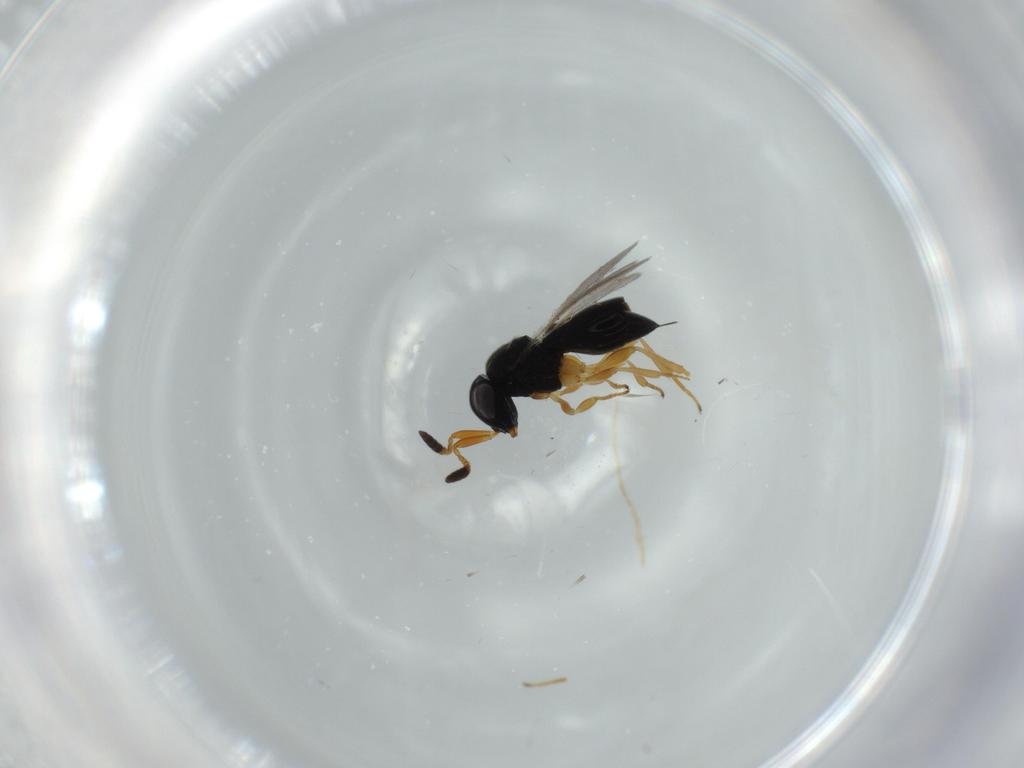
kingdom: Animalia
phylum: Arthropoda
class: Insecta
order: Hymenoptera
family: Scelionidae
